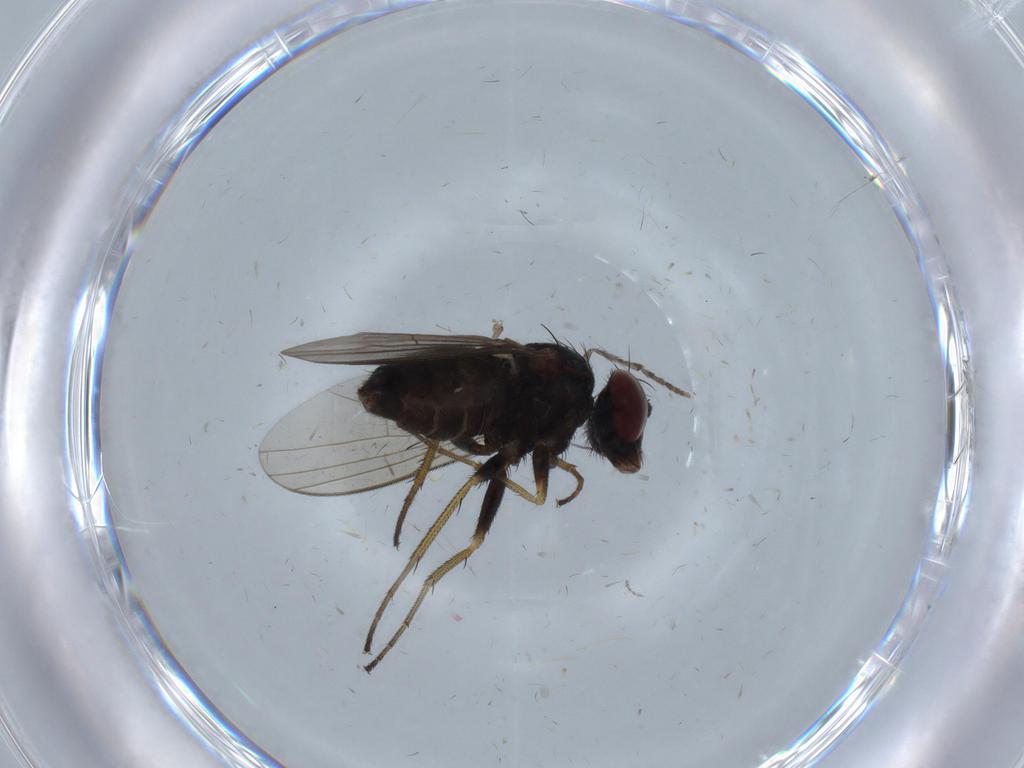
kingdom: Animalia
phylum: Arthropoda
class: Insecta
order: Diptera
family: Dolichopodidae
